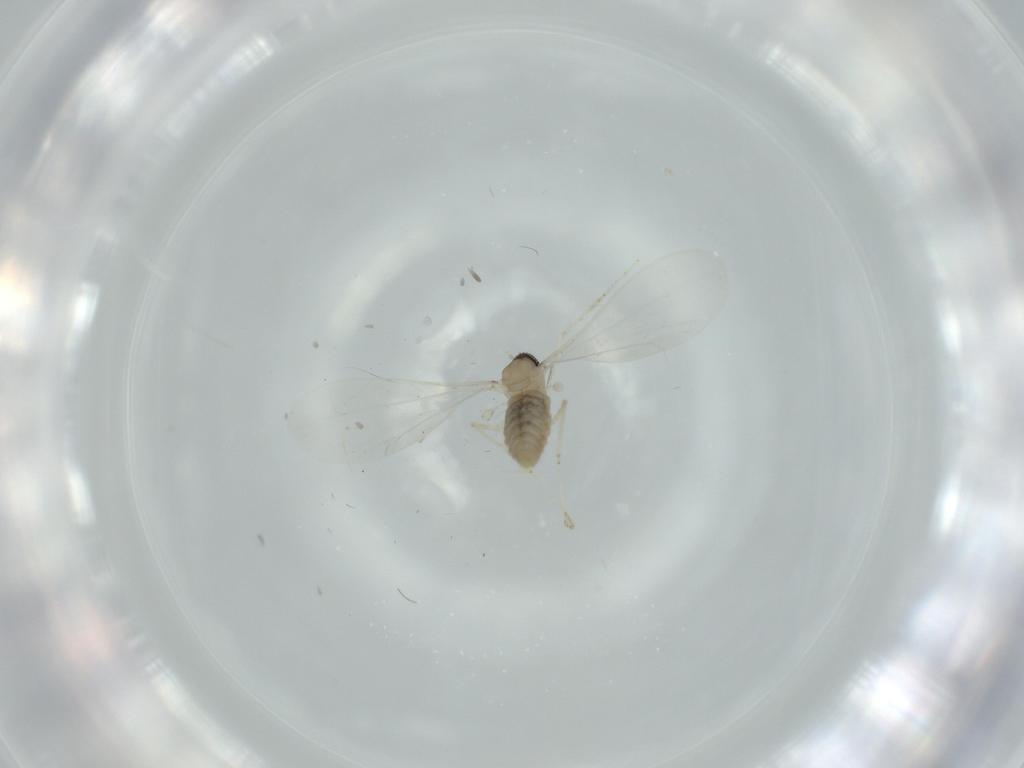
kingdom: Animalia
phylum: Arthropoda
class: Insecta
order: Diptera
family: Cecidomyiidae
